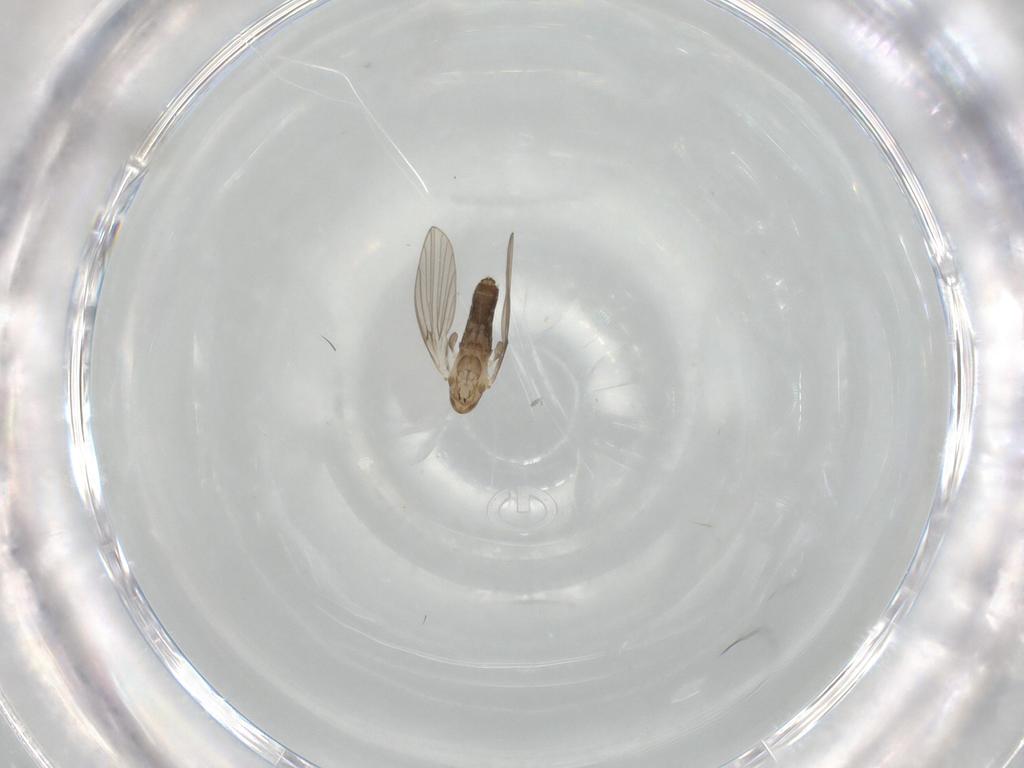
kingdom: Animalia
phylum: Arthropoda
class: Insecta
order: Diptera
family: Psychodidae
